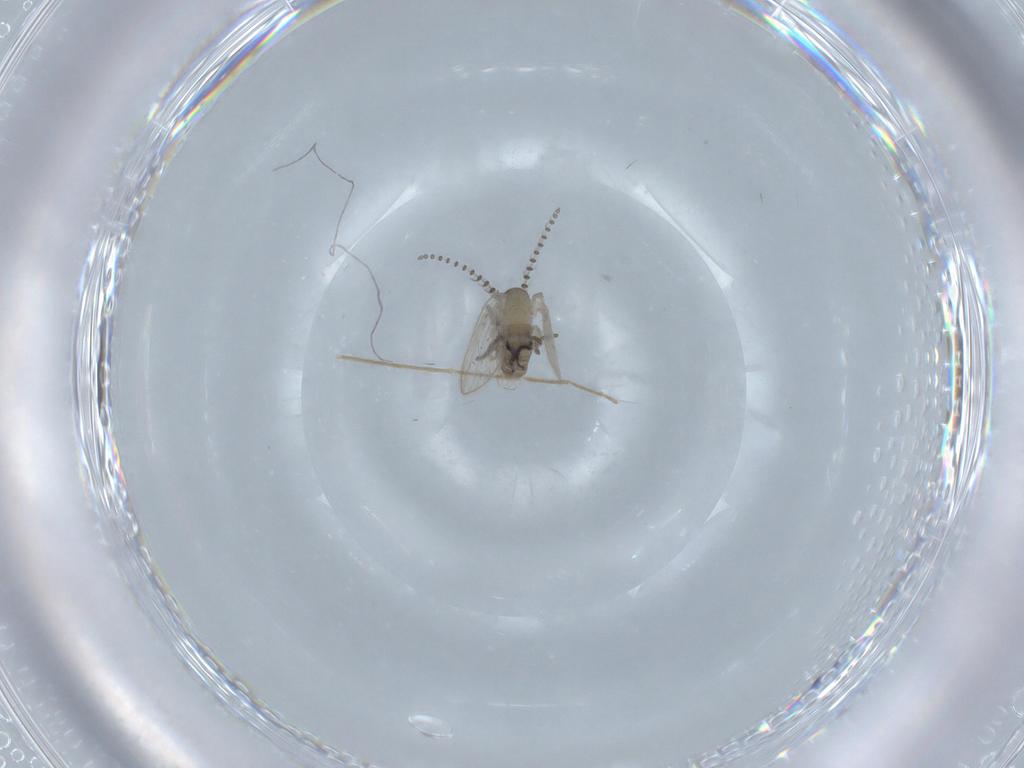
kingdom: Animalia
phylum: Arthropoda
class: Insecta
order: Diptera
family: Psychodidae
